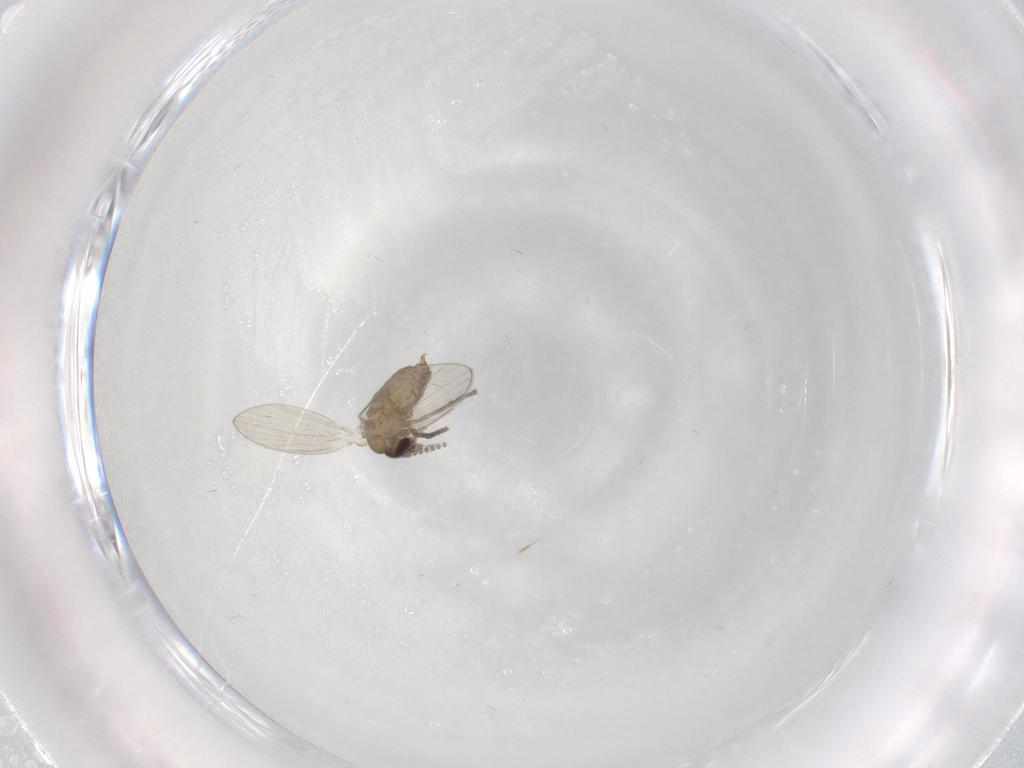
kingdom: Animalia
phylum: Arthropoda
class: Insecta
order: Diptera
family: Psychodidae
